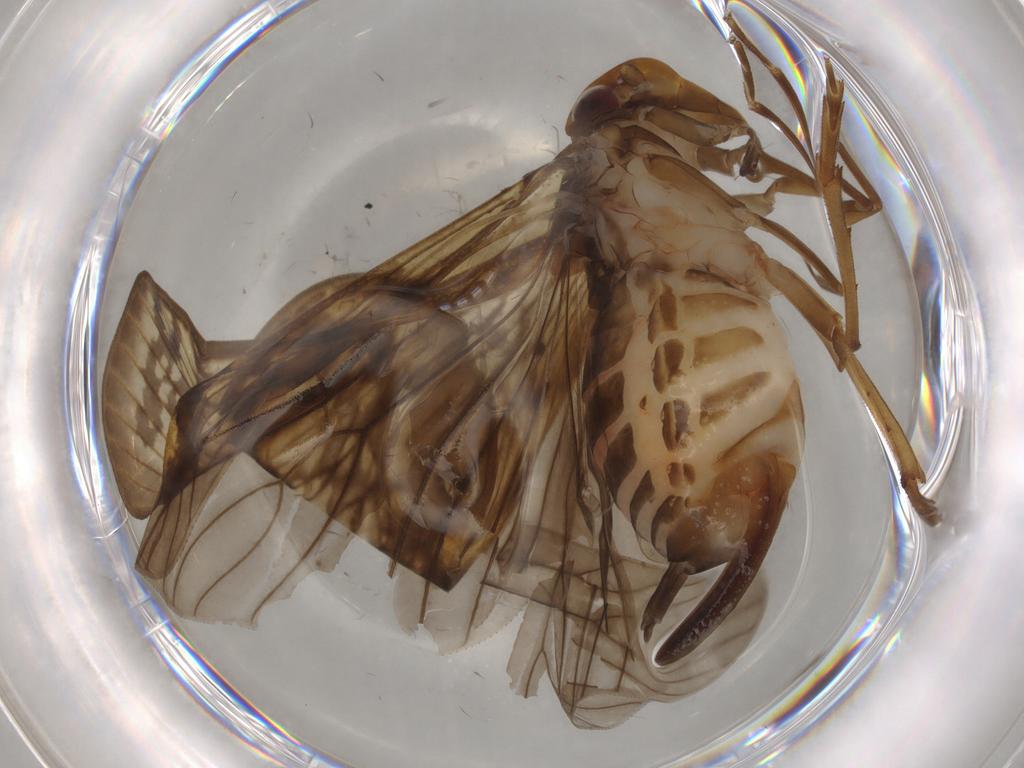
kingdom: Animalia
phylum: Arthropoda
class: Insecta
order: Hemiptera
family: Cixiidae
